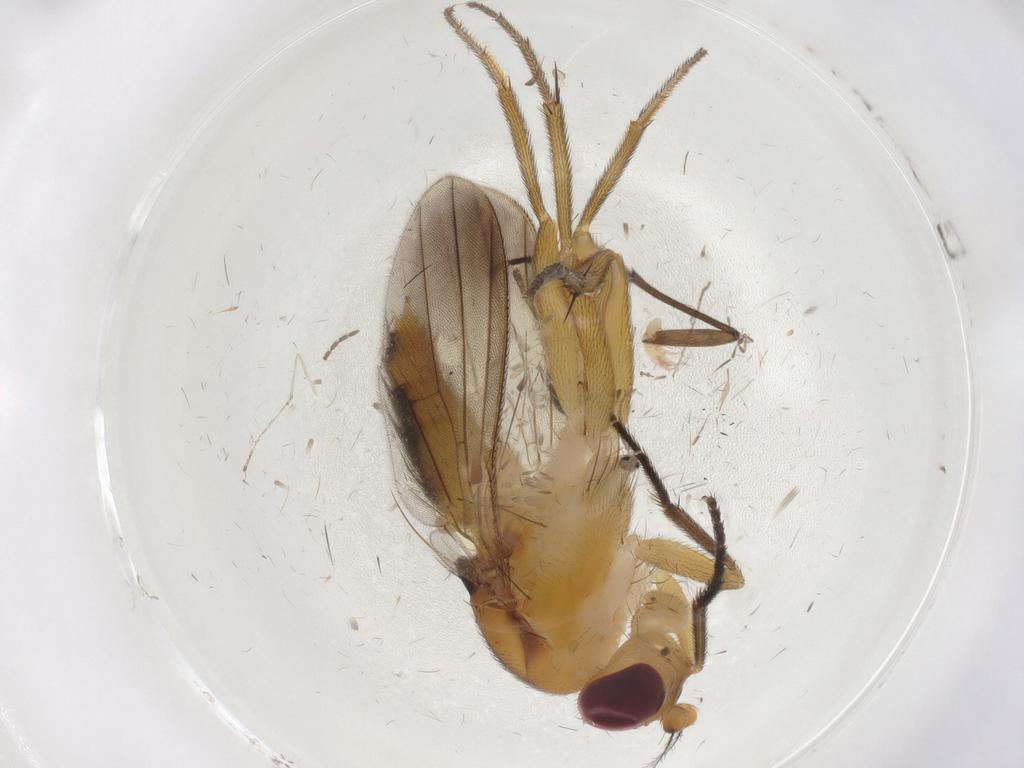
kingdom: Animalia
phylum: Arthropoda
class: Insecta
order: Diptera
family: Clusiidae
